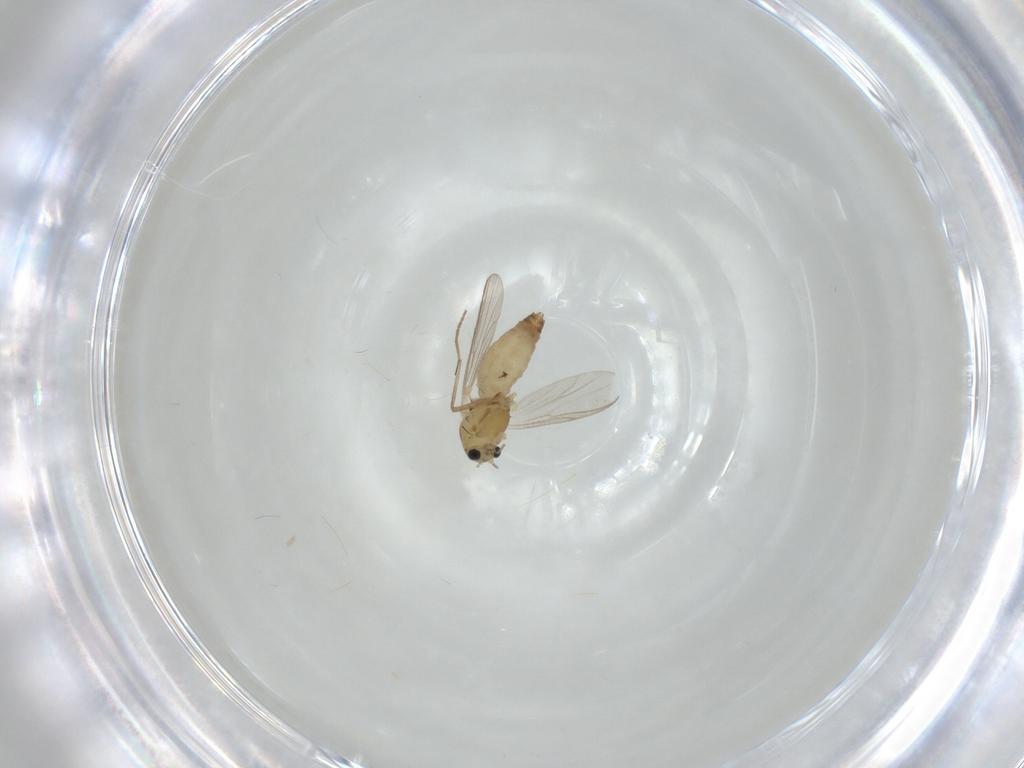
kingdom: Animalia
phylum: Arthropoda
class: Insecta
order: Diptera
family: Chironomidae
